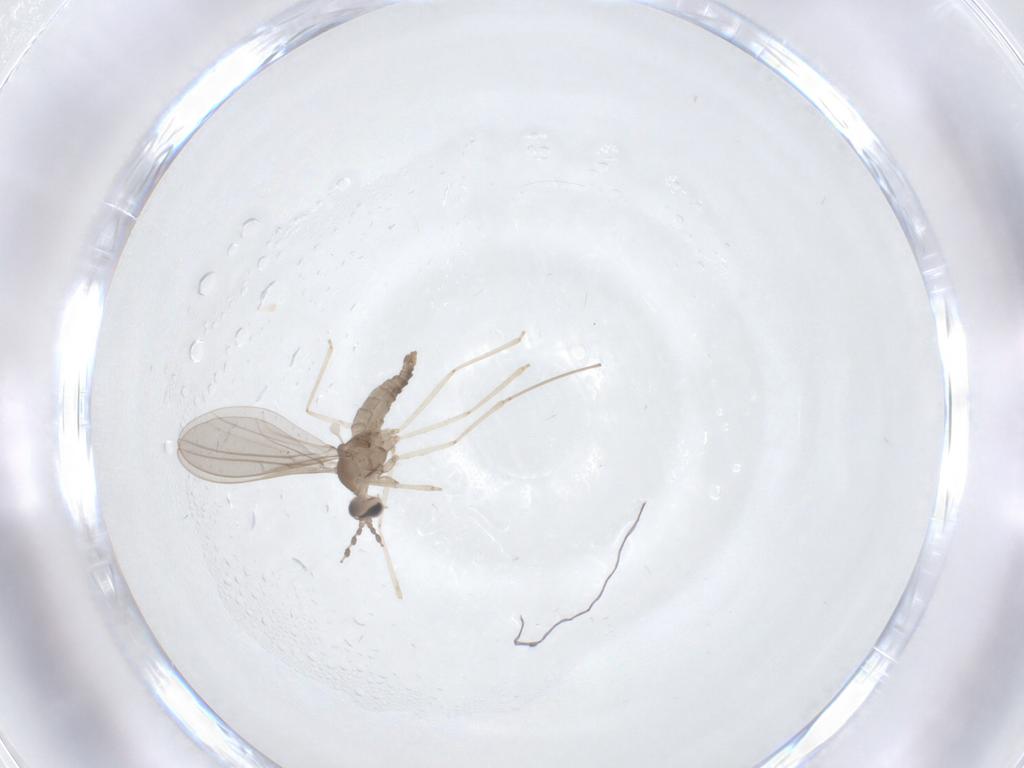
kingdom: Animalia
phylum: Arthropoda
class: Insecta
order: Diptera
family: Cecidomyiidae
